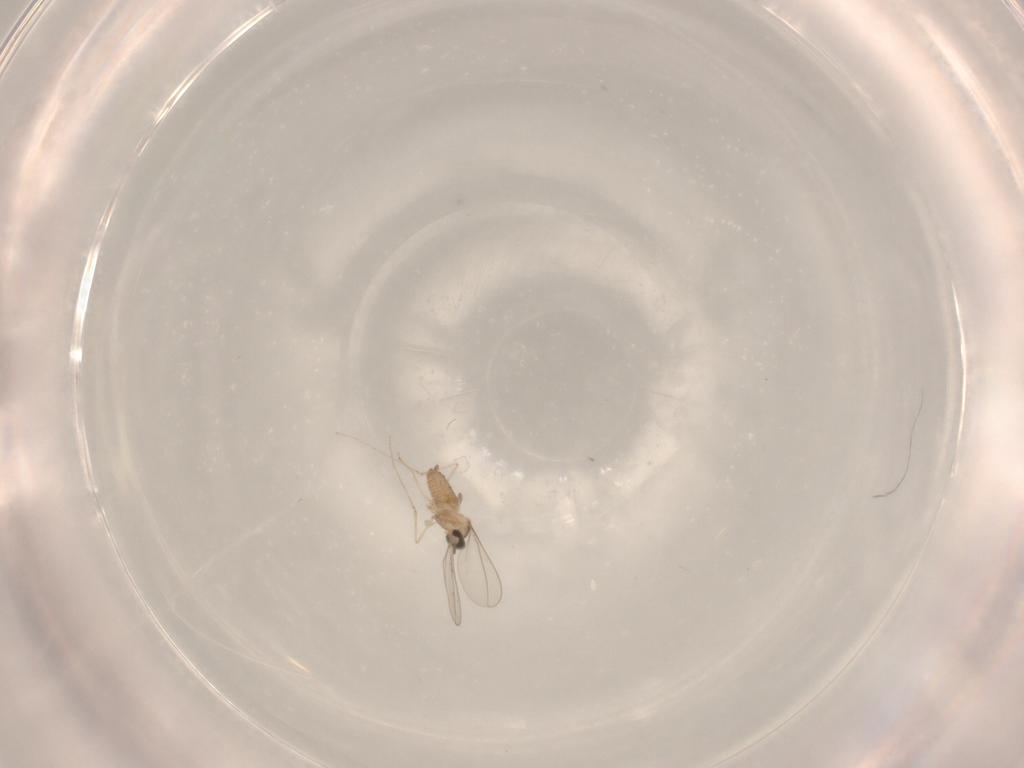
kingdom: Animalia
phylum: Arthropoda
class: Insecta
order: Diptera
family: Cecidomyiidae
